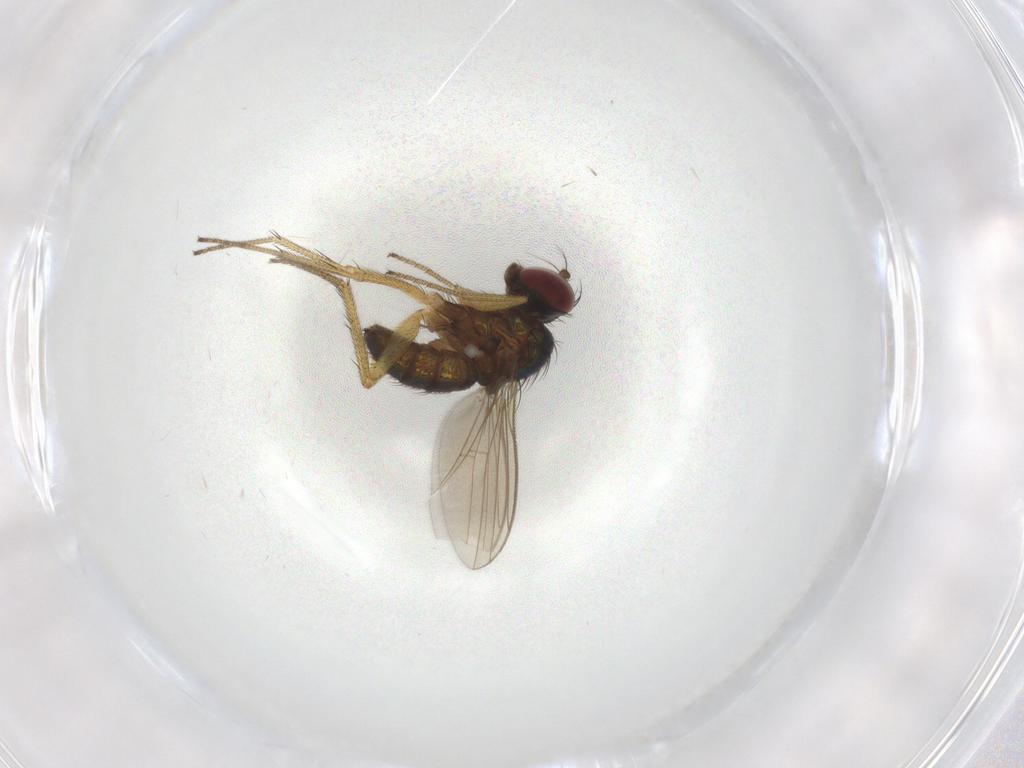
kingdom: Animalia
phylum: Arthropoda
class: Insecta
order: Diptera
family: Chironomidae
